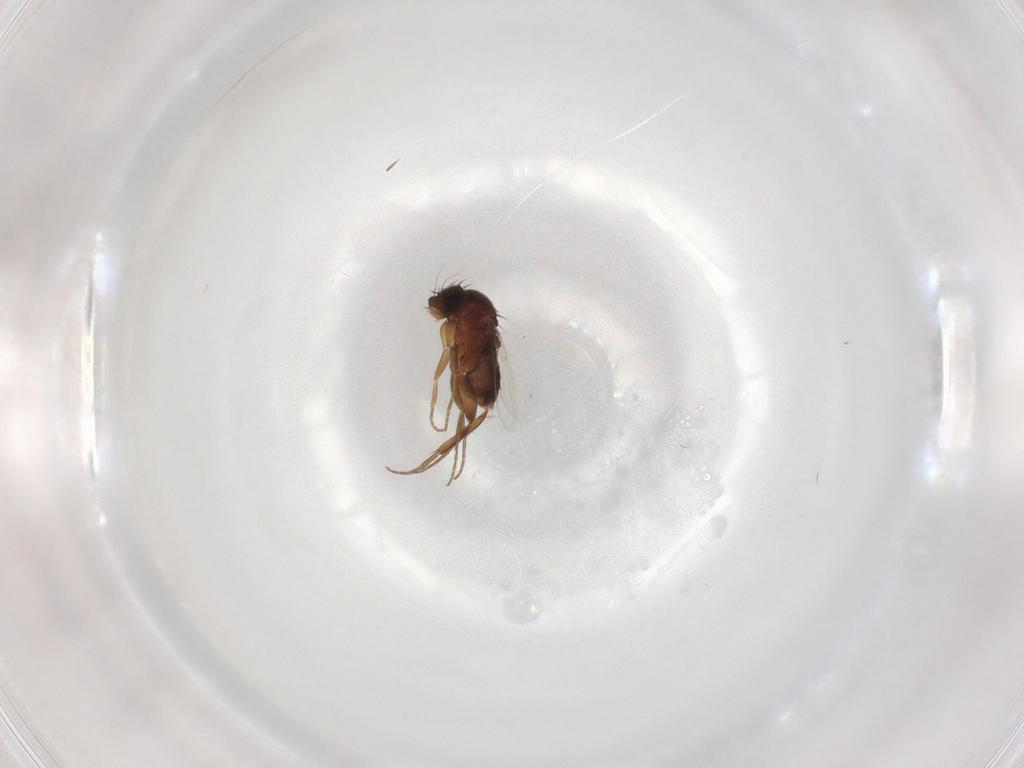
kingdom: Animalia
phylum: Arthropoda
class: Insecta
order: Diptera
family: Phoridae
